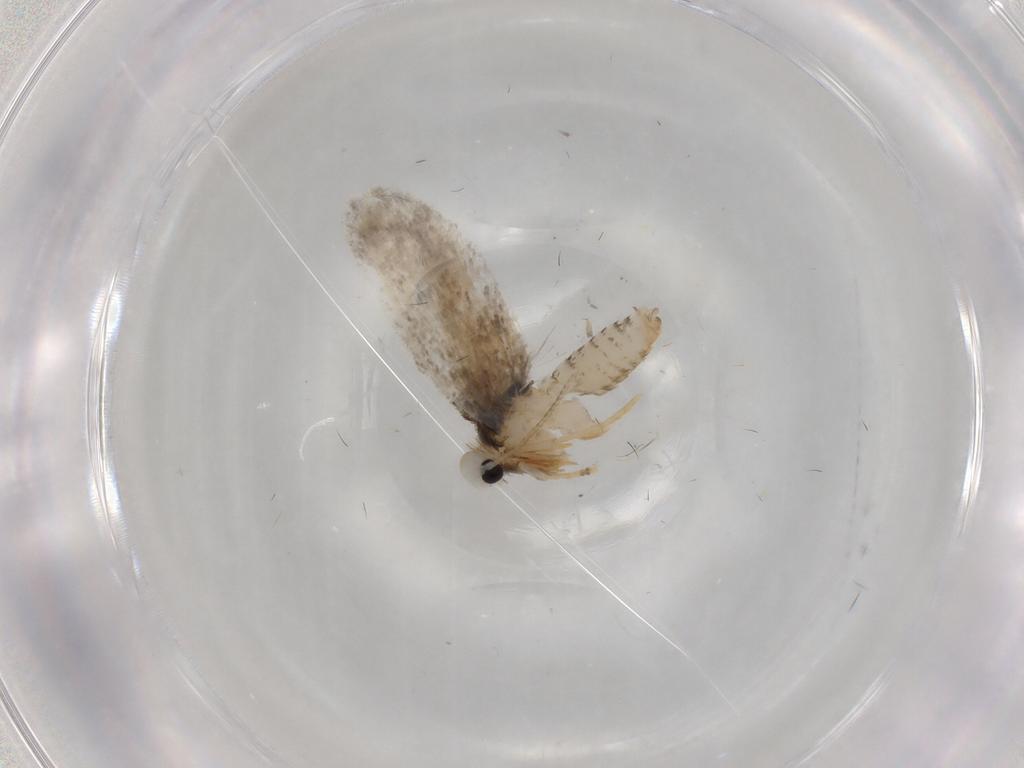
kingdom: Animalia
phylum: Arthropoda
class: Insecta
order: Lepidoptera
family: Psychidae
